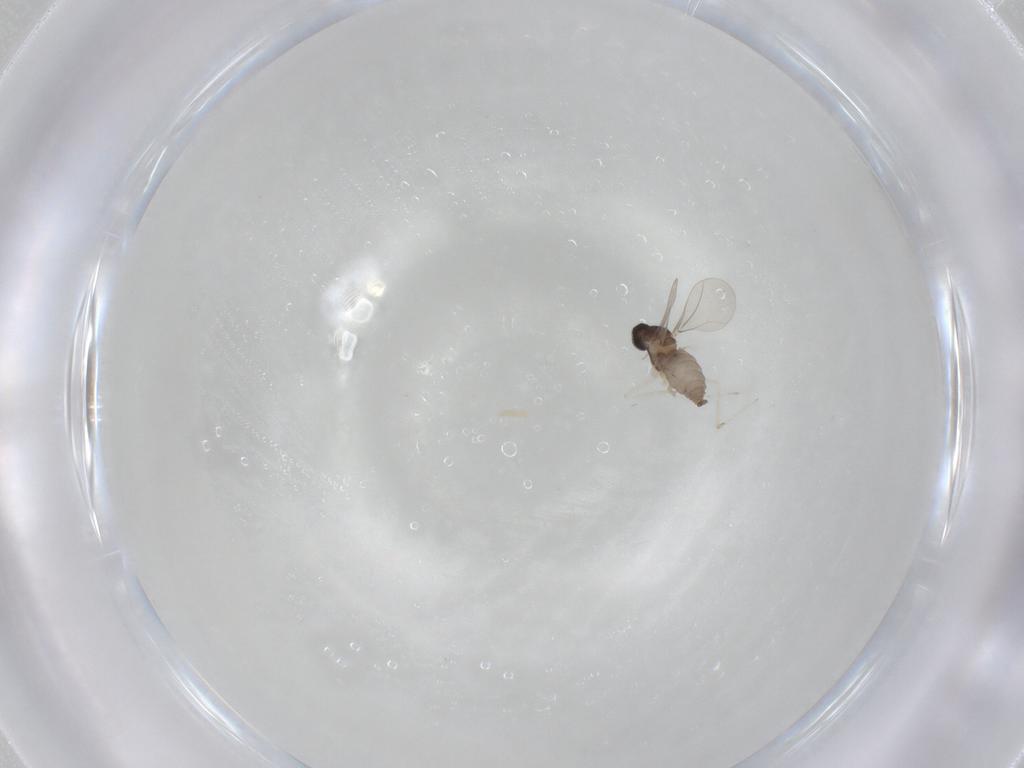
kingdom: Animalia
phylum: Arthropoda
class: Insecta
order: Diptera
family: Cecidomyiidae
